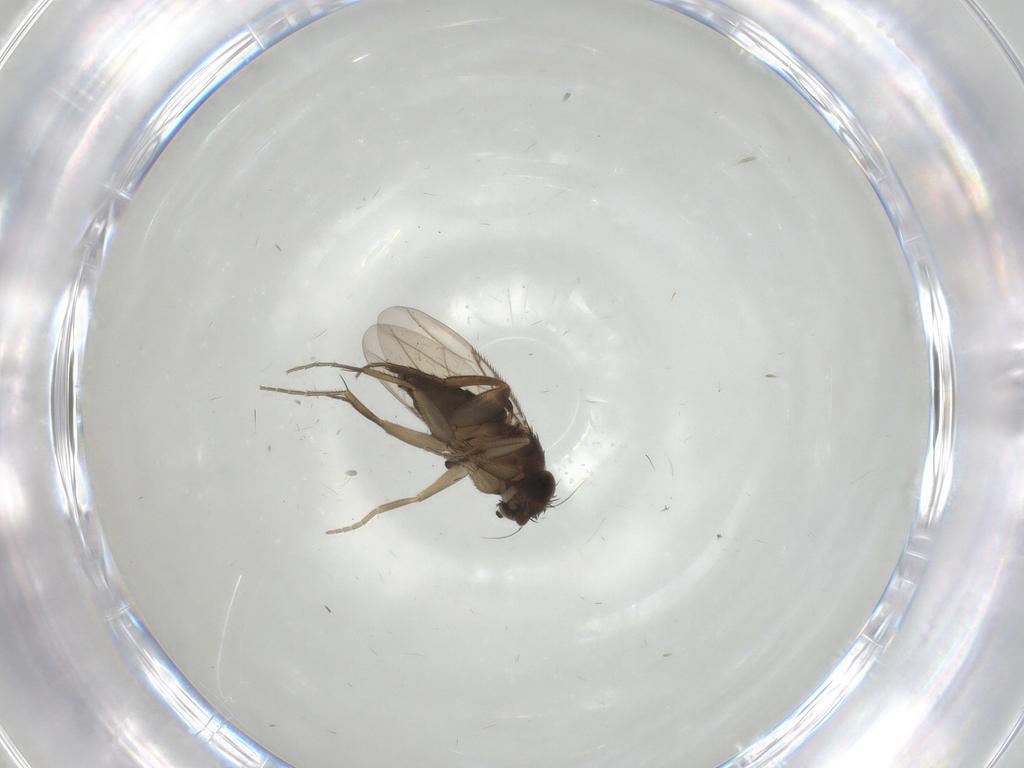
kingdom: Animalia
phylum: Arthropoda
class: Insecta
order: Diptera
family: Phoridae
